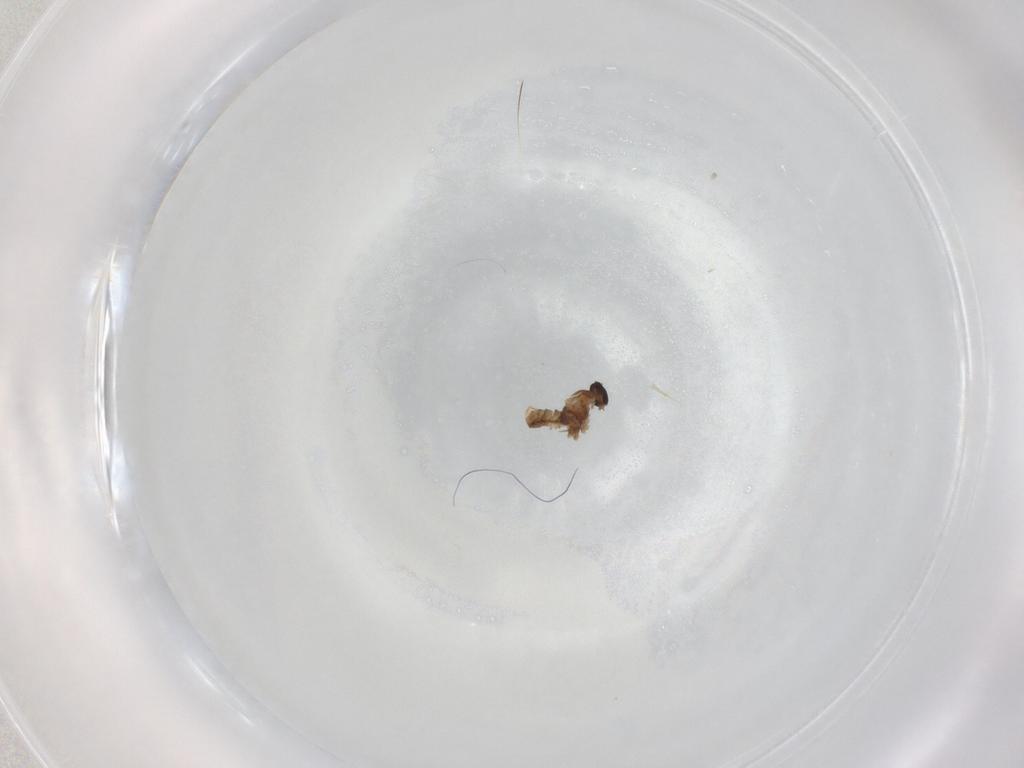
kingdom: Animalia
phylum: Arthropoda
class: Insecta
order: Diptera
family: Cecidomyiidae
